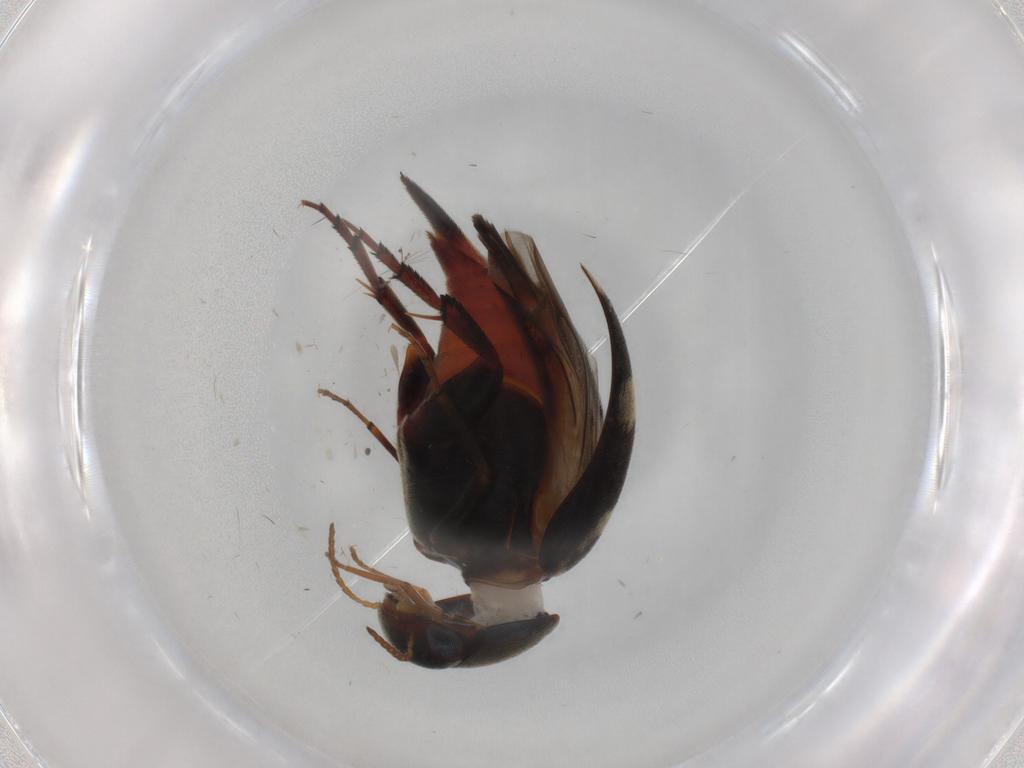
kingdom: Animalia
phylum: Arthropoda
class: Insecta
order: Coleoptera
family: Mordellidae
